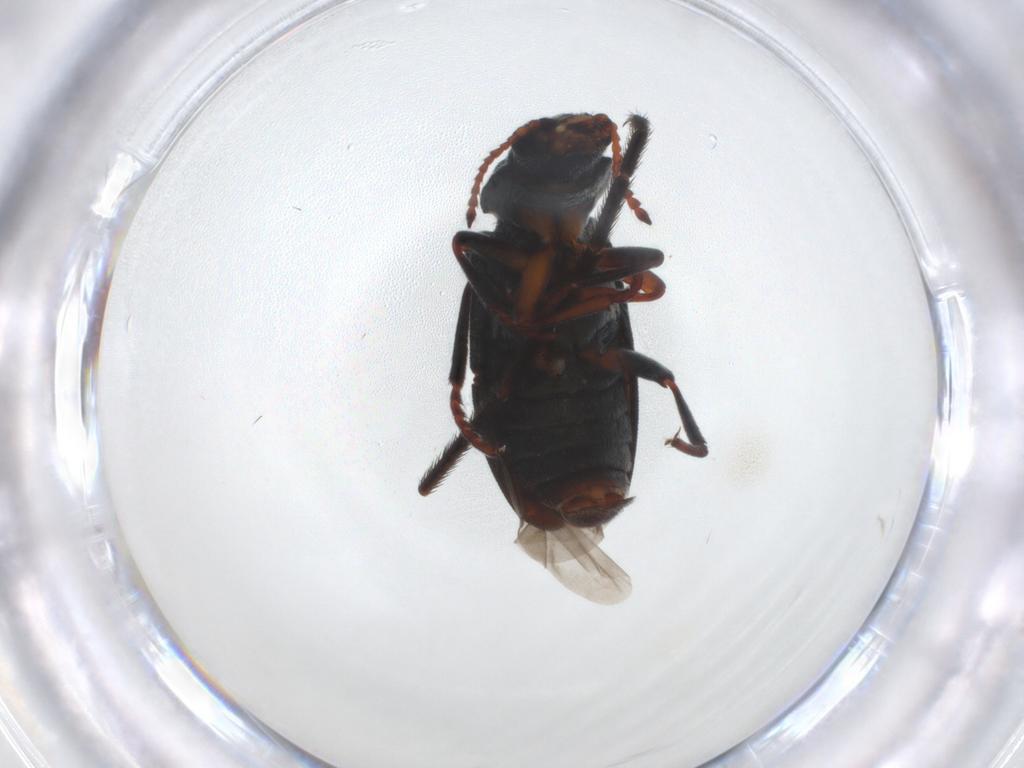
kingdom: Animalia
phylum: Arthropoda
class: Insecta
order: Coleoptera
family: Melyridae
